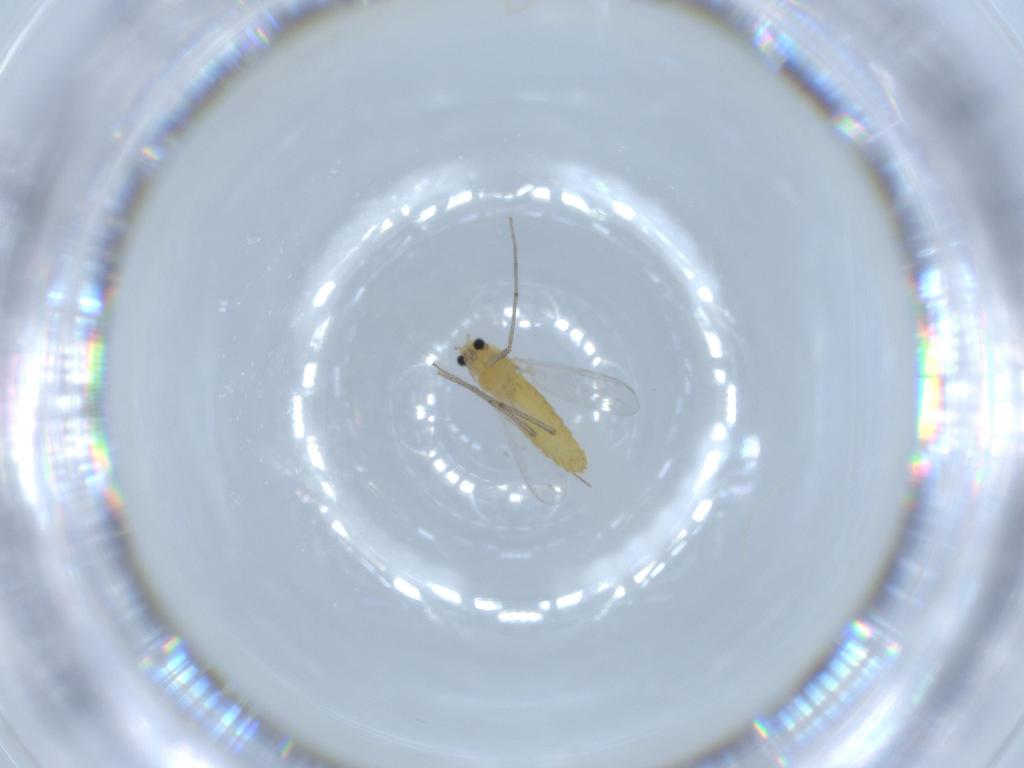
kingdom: Animalia
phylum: Arthropoda
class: Insecta
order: Diptera
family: Chironomidae
